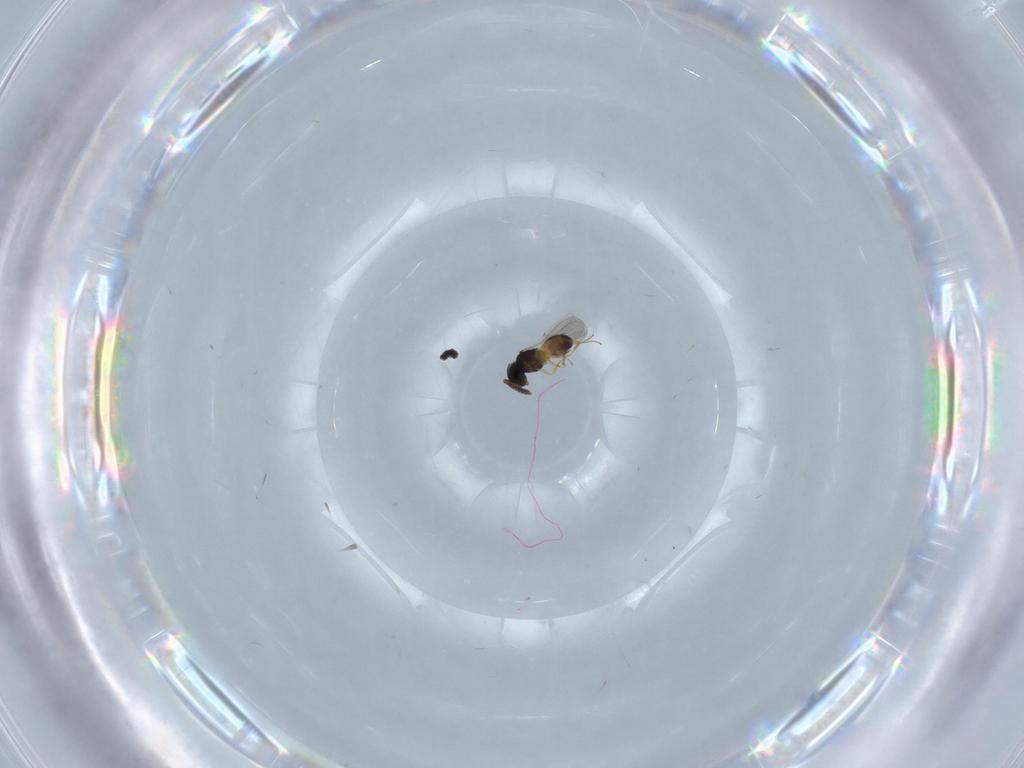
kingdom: Animalia
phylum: Arthropoda
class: Insecta
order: Hymenoptera
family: Scelionidae
